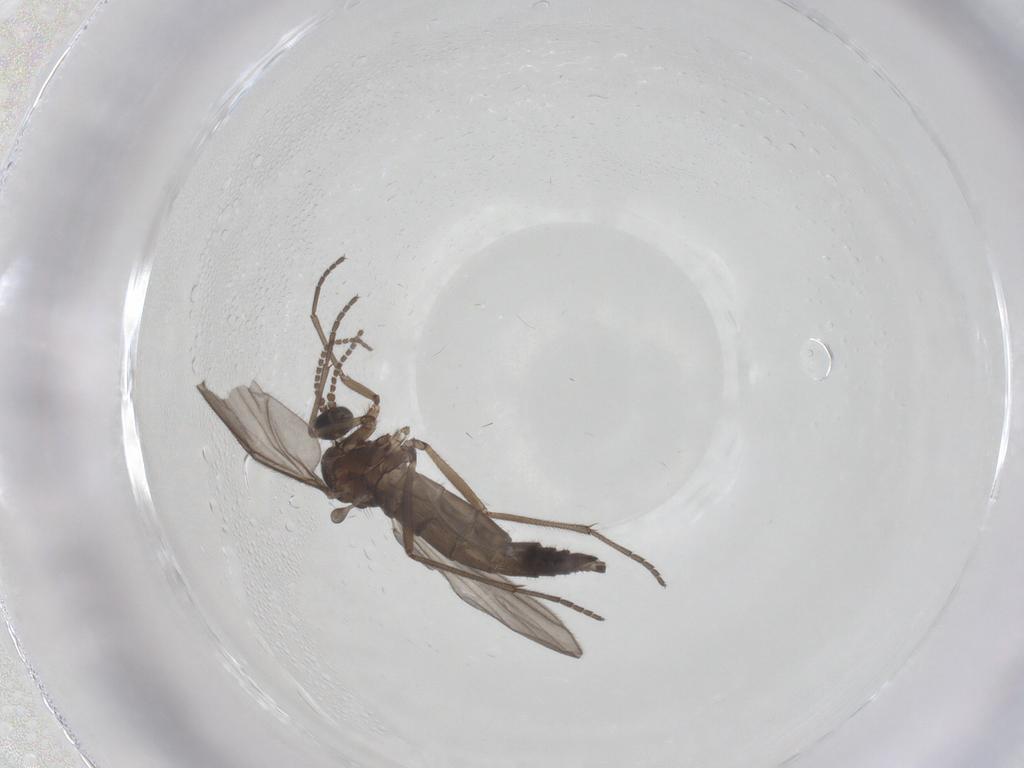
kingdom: Animalia
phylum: Arthropoda
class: Insecta
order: Diptera
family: Sciaridae
